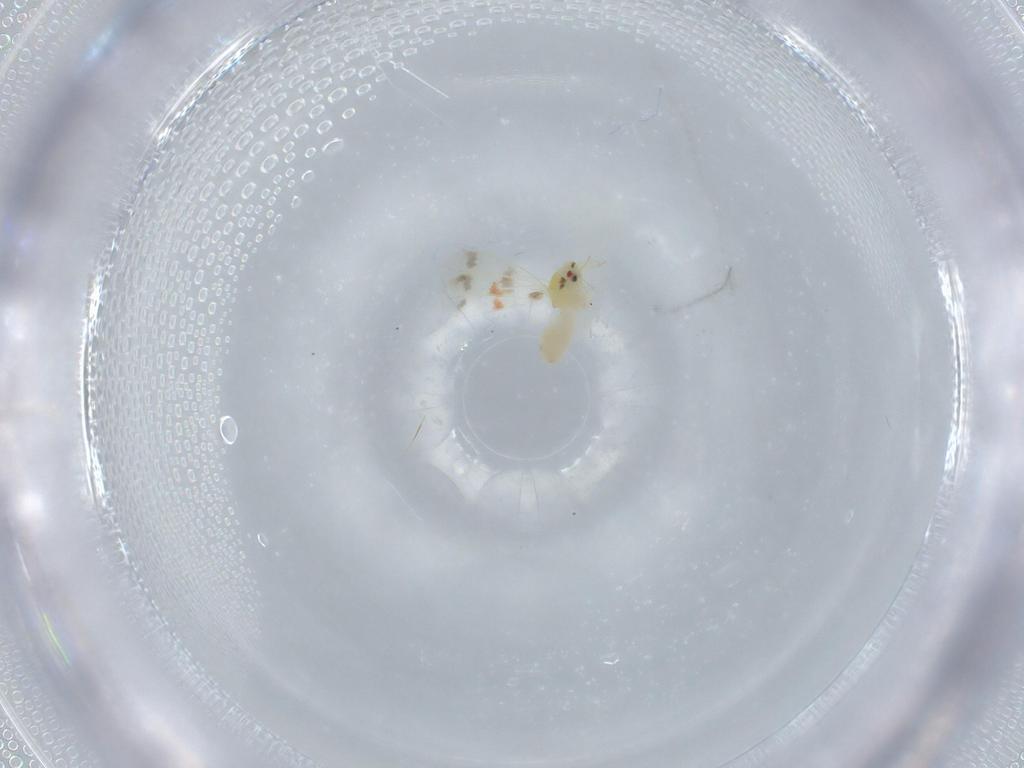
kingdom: Animalia
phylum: Arthropoda
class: Insecta
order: Hemiptera
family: Aleyrodidae
